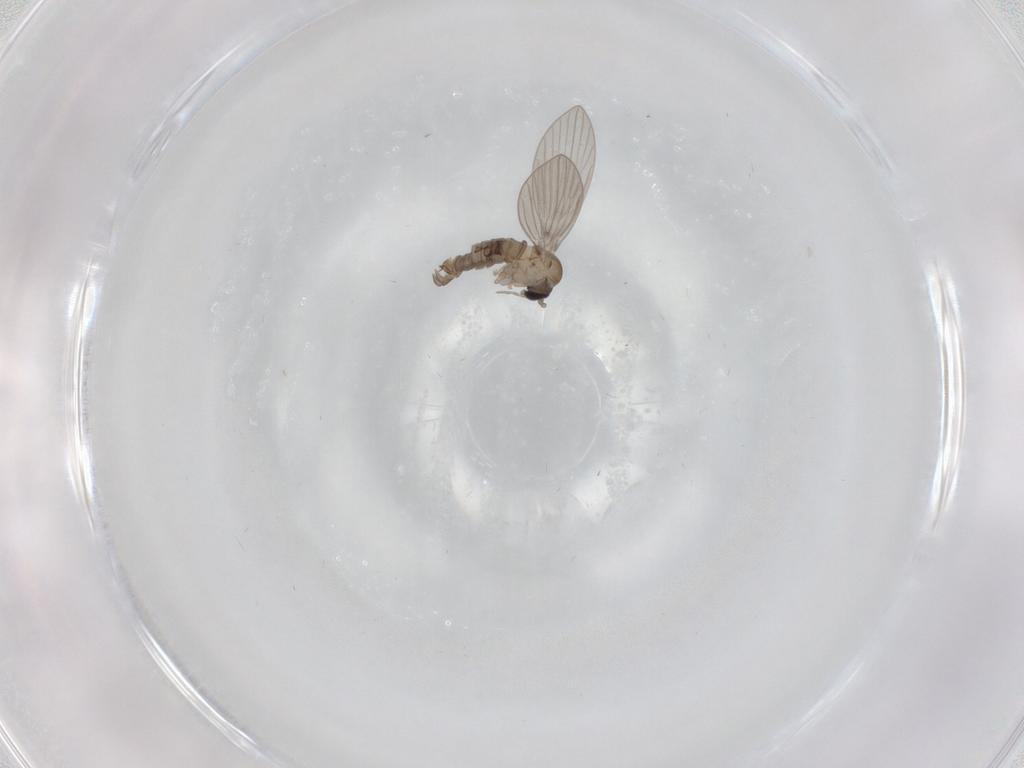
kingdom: Animalia
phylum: Arthropoda
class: Insecta
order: Diptera
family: Psychodidae
